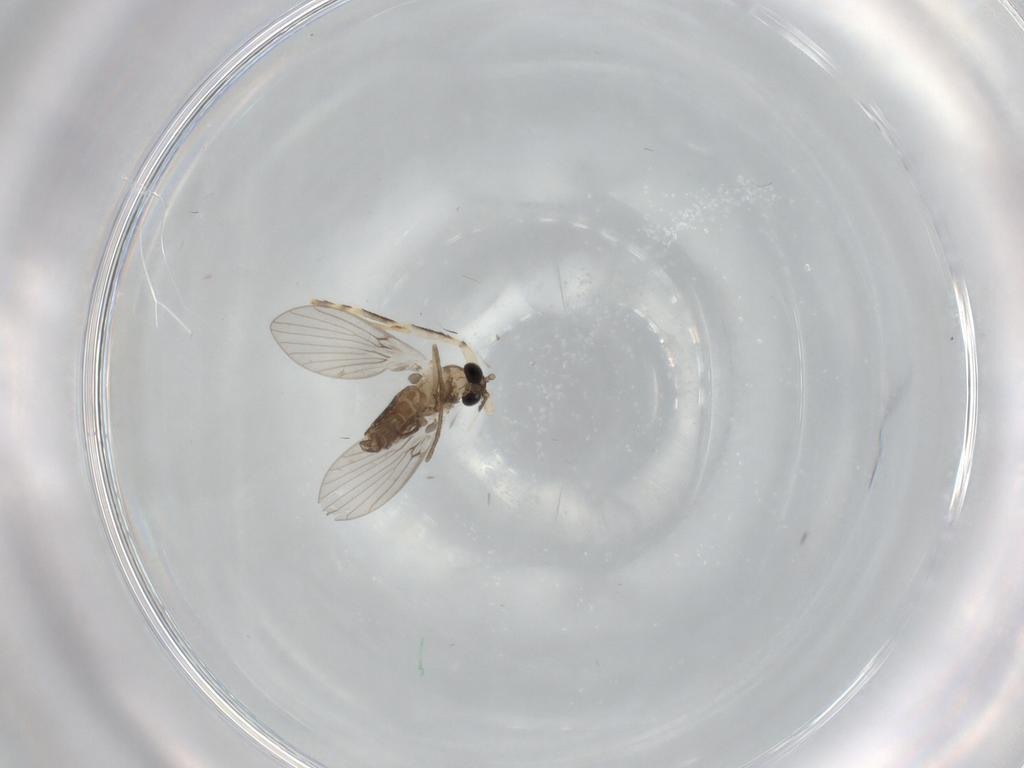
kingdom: Animalia
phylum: Arthropoda
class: Insecta
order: Diptera
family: Psychodidae
